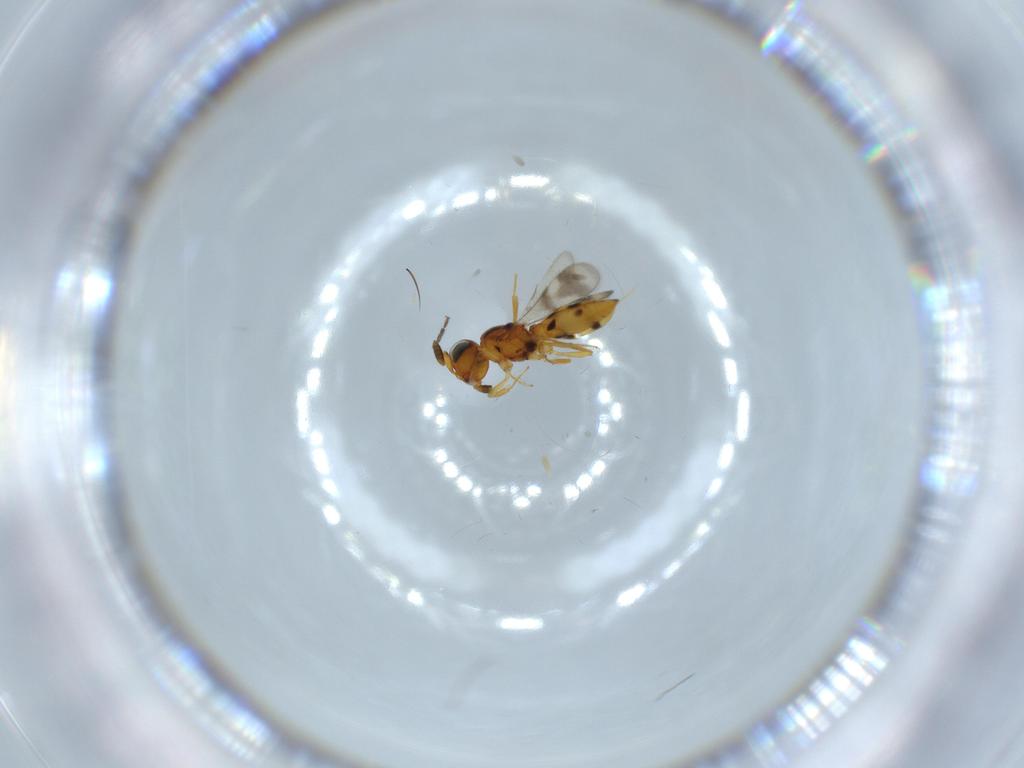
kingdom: Animalia
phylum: Arthropoda
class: Insecta
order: Hymenoptera
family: Scelionidae
